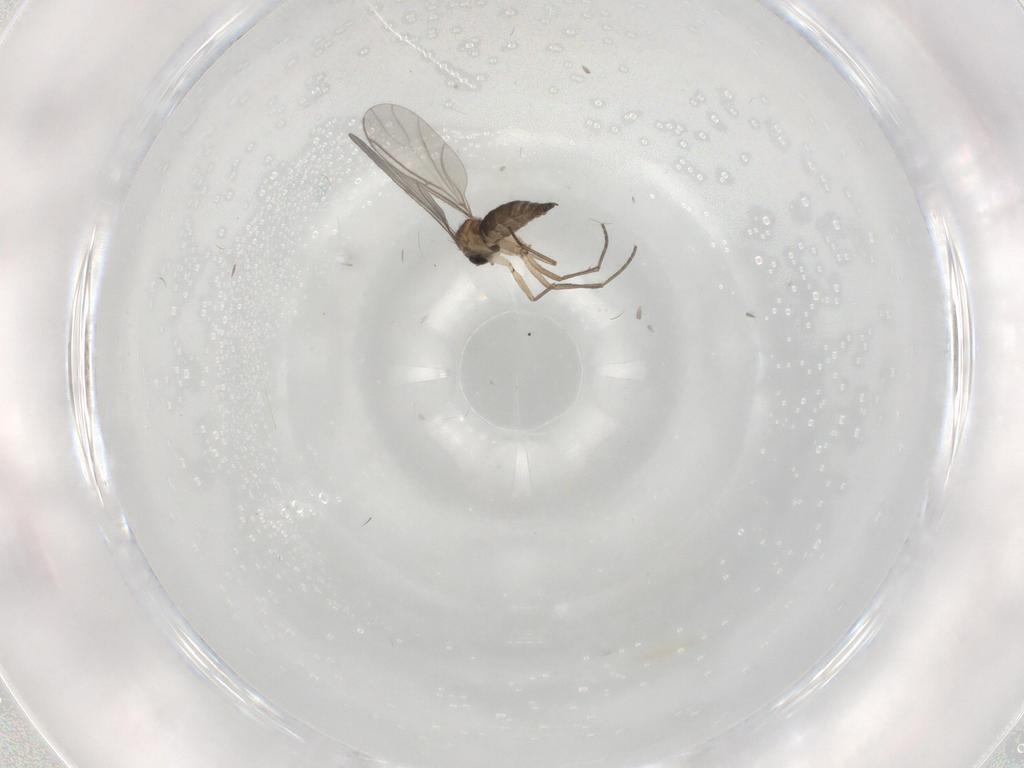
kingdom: Animalia
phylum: Arthropoda
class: Insecta
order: Diptera
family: Sciaridae
